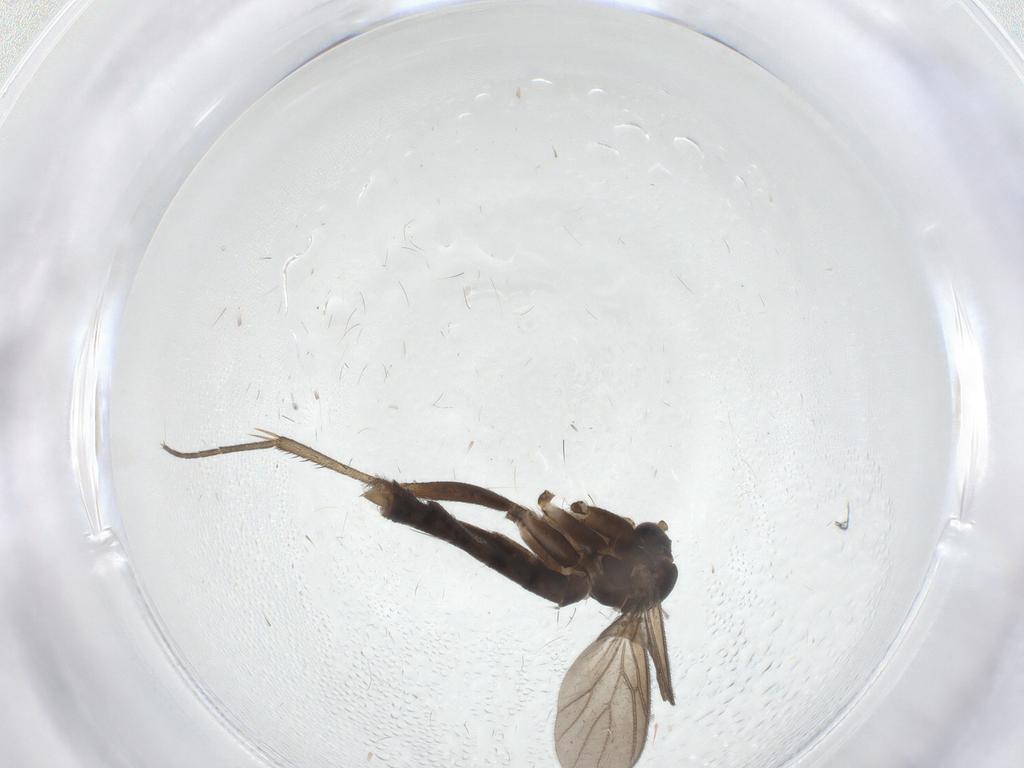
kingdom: Animalia
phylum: Arthropoda
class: Insecta
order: Diptera
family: Mycetophilidae
